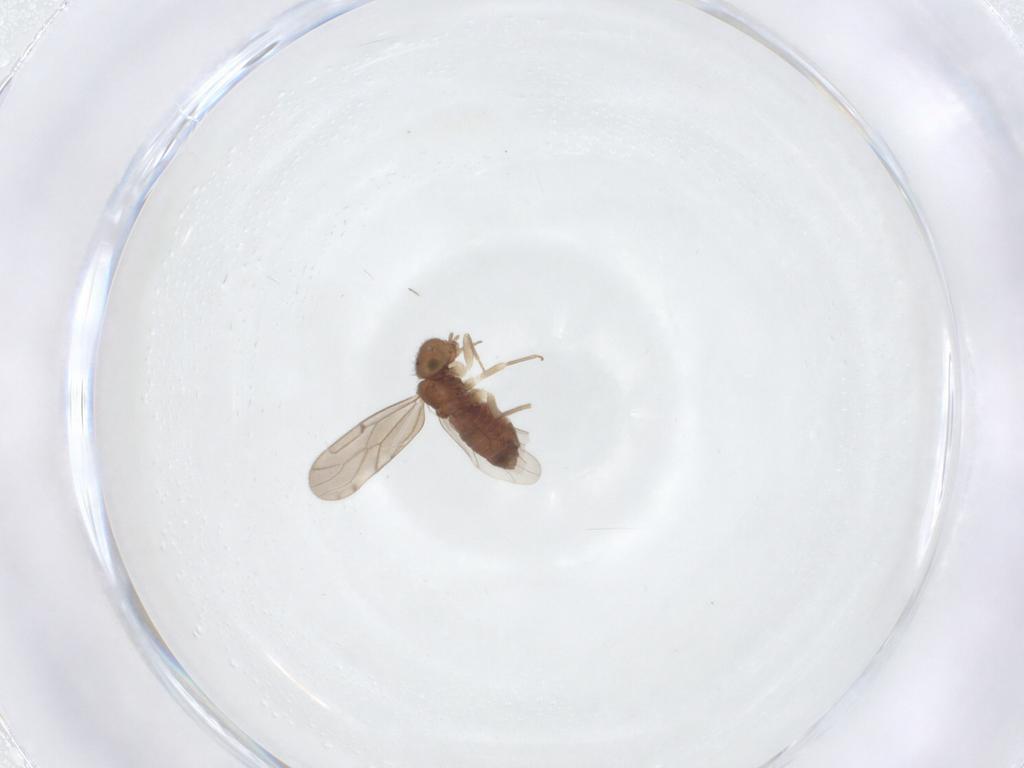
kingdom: Animalia
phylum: Arthropoda
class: Insecta
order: Psocodea
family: Ectopsocidae
